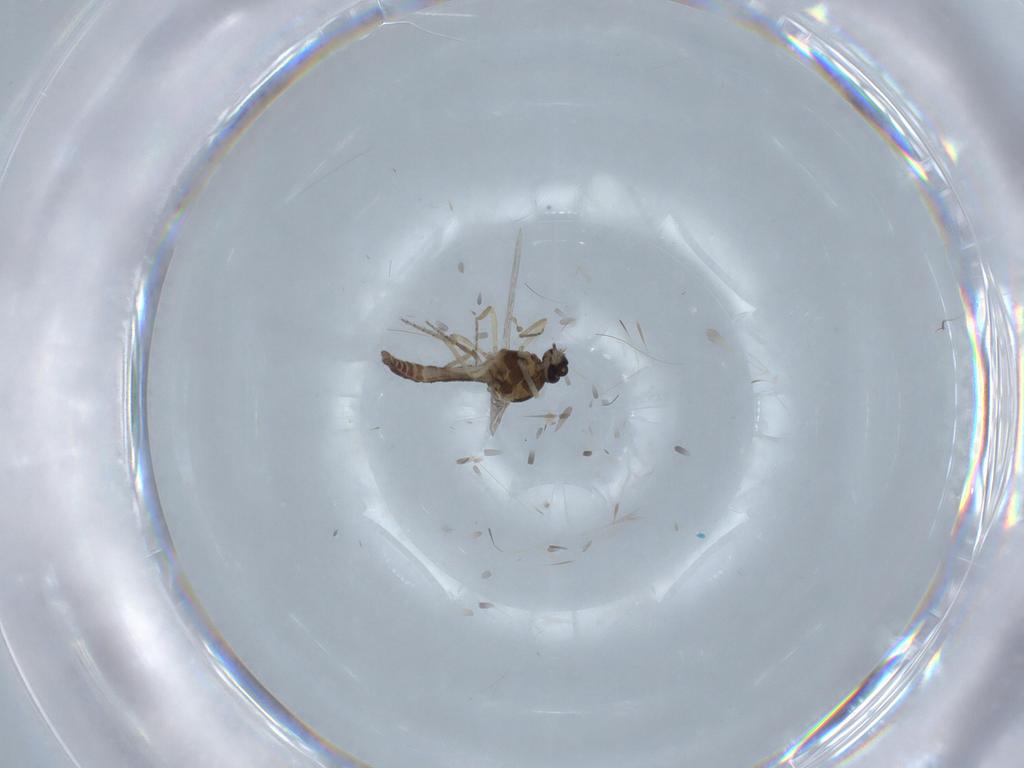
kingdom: Animalia
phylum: Arthropoda
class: Insecta
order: Diptera
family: Ceratopogonidae
